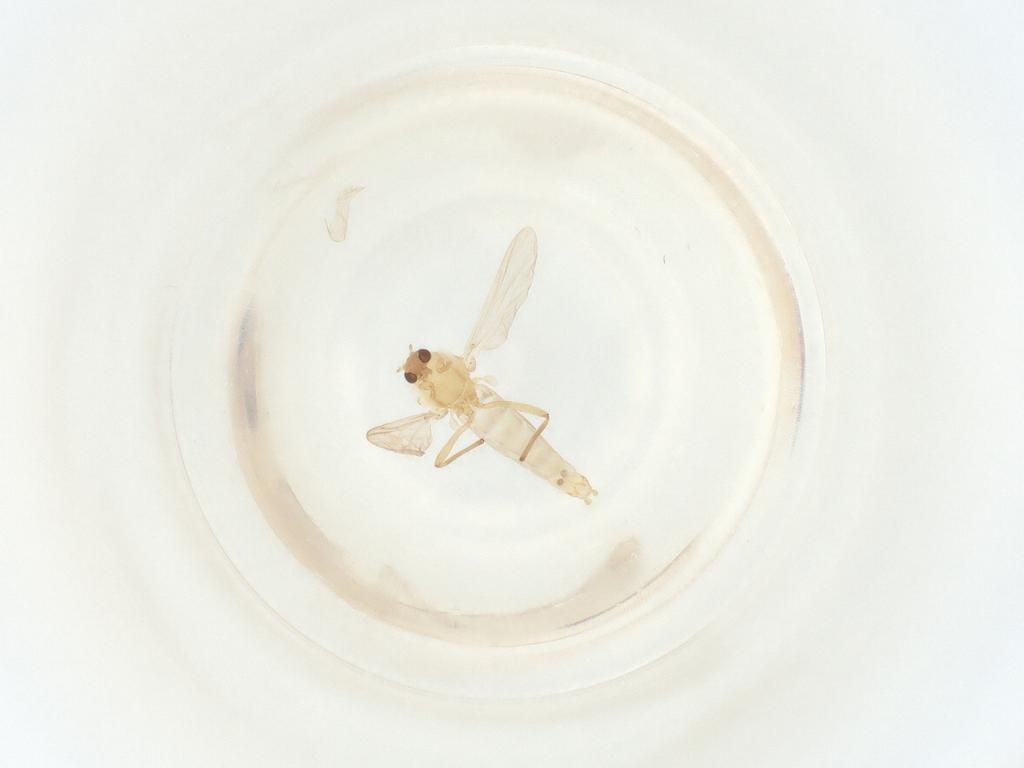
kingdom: Animalia
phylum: Arthropoda
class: Insecta
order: Diptera
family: Chironomidae
